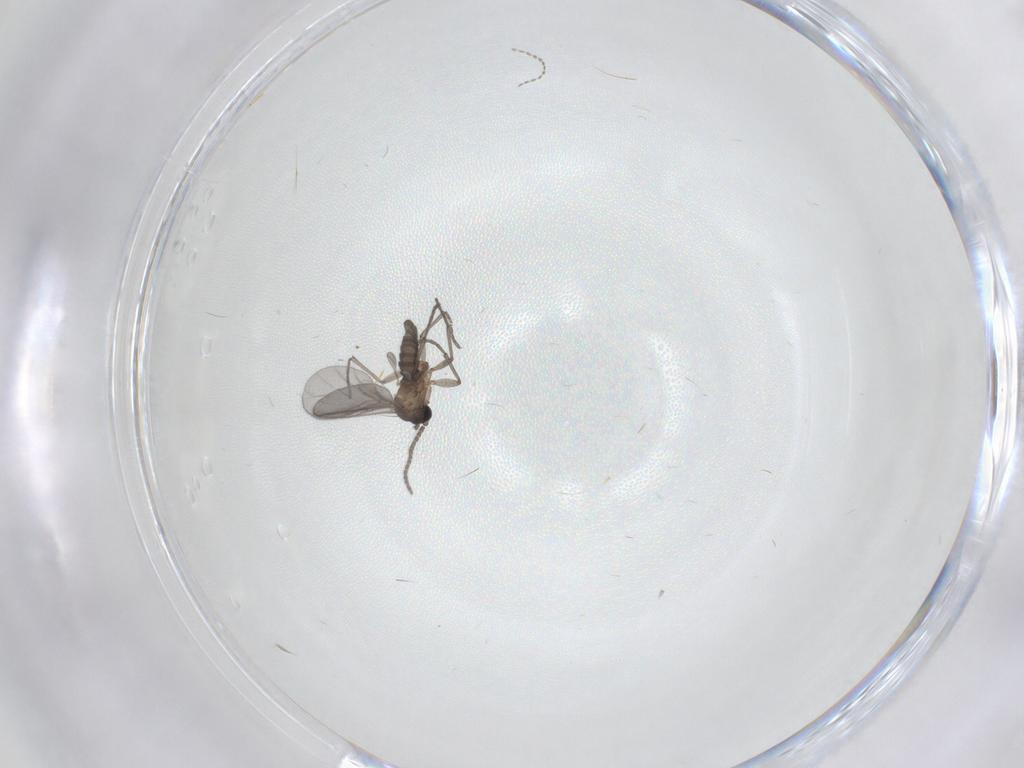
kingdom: Animalia
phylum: Arthropoda
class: Insecta
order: Diptera
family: Sciaridae
